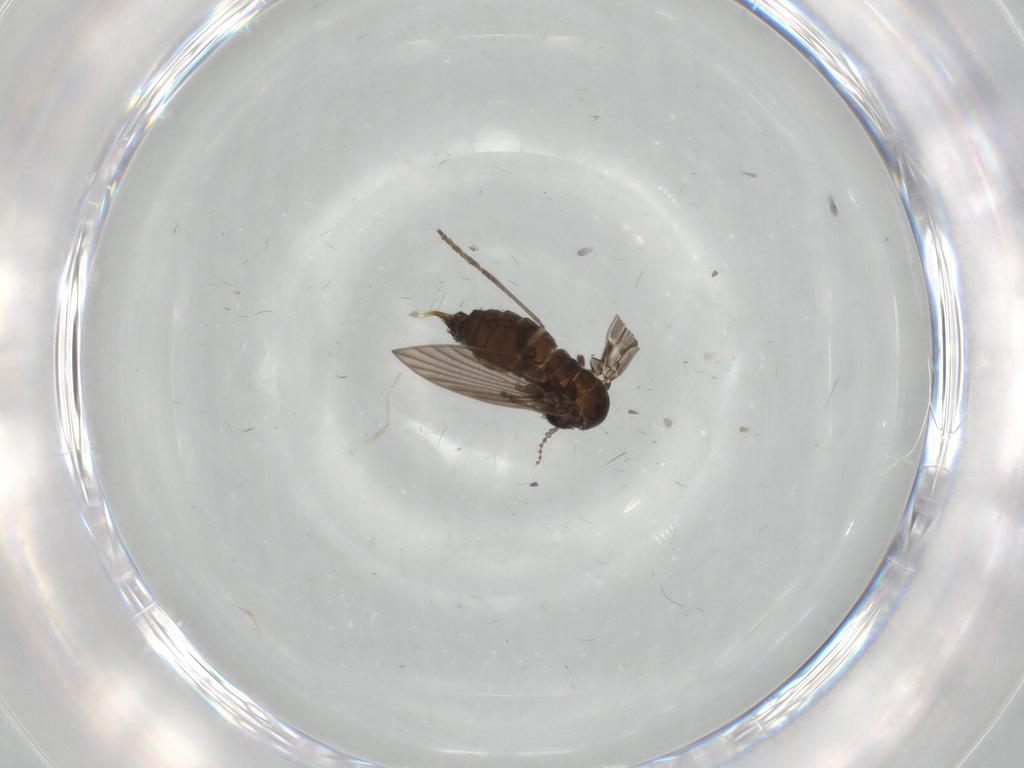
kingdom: Animalia
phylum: Arthropoda
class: Insecta
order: Diptera
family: Psychodidae
